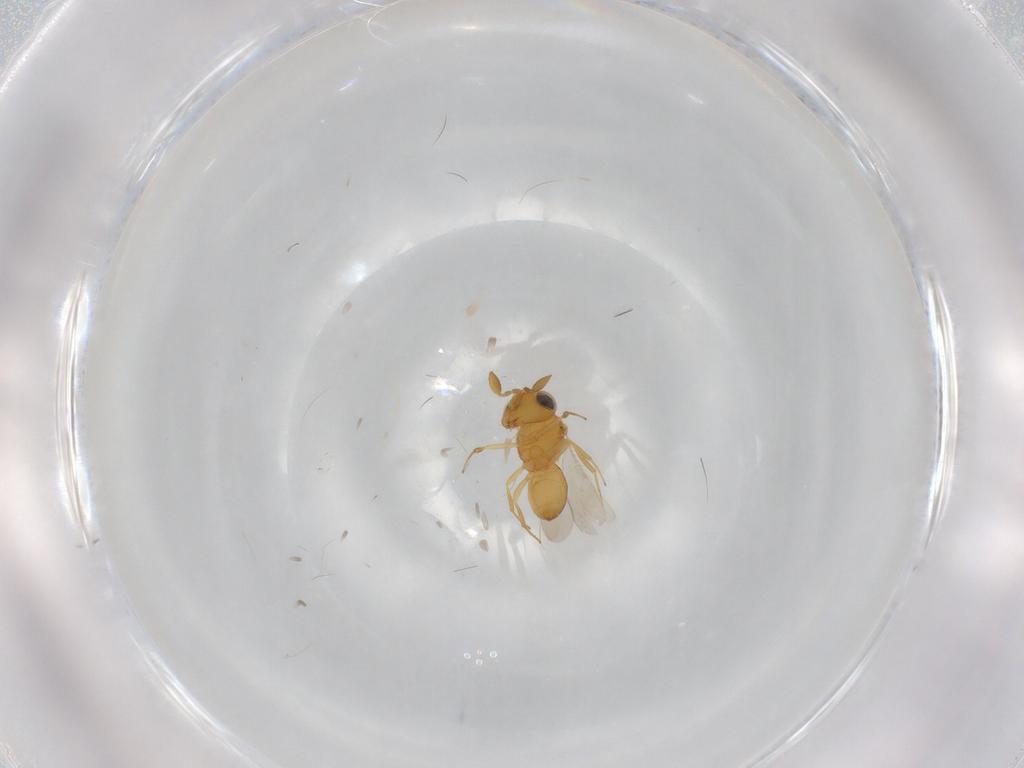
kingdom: Animalia
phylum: Arthropoda
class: Insecta
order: Hymenoptera
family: Scelionidae
